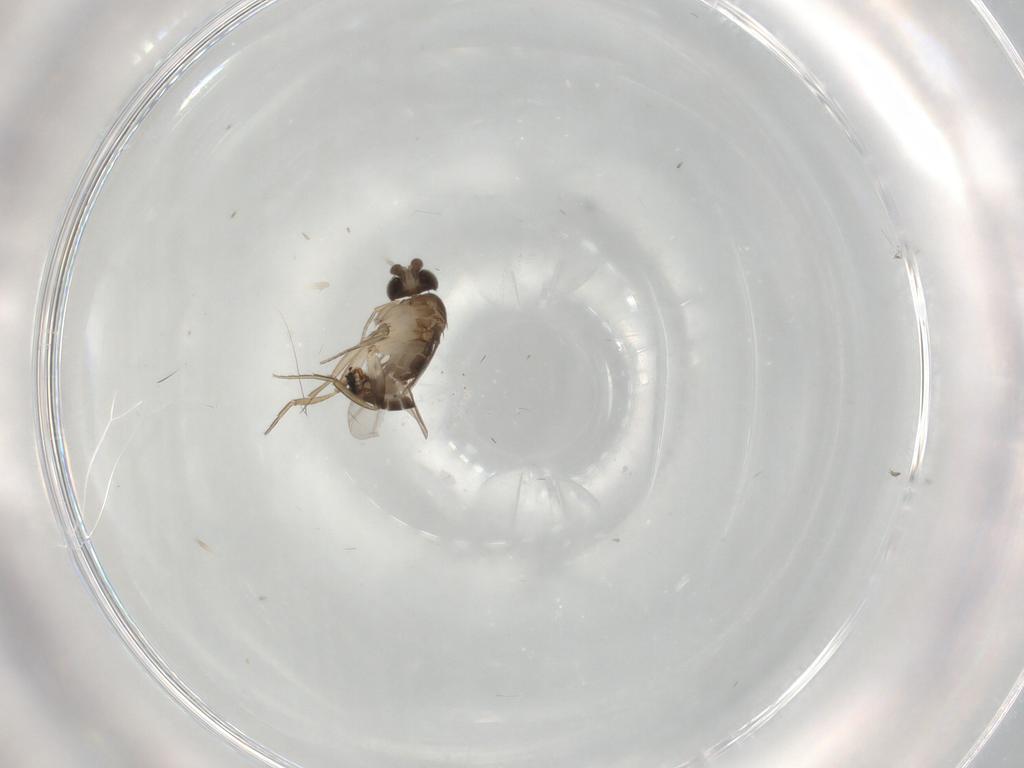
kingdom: Animalia
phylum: Arthropoda
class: Insecta
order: Diptera
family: Phoridae
